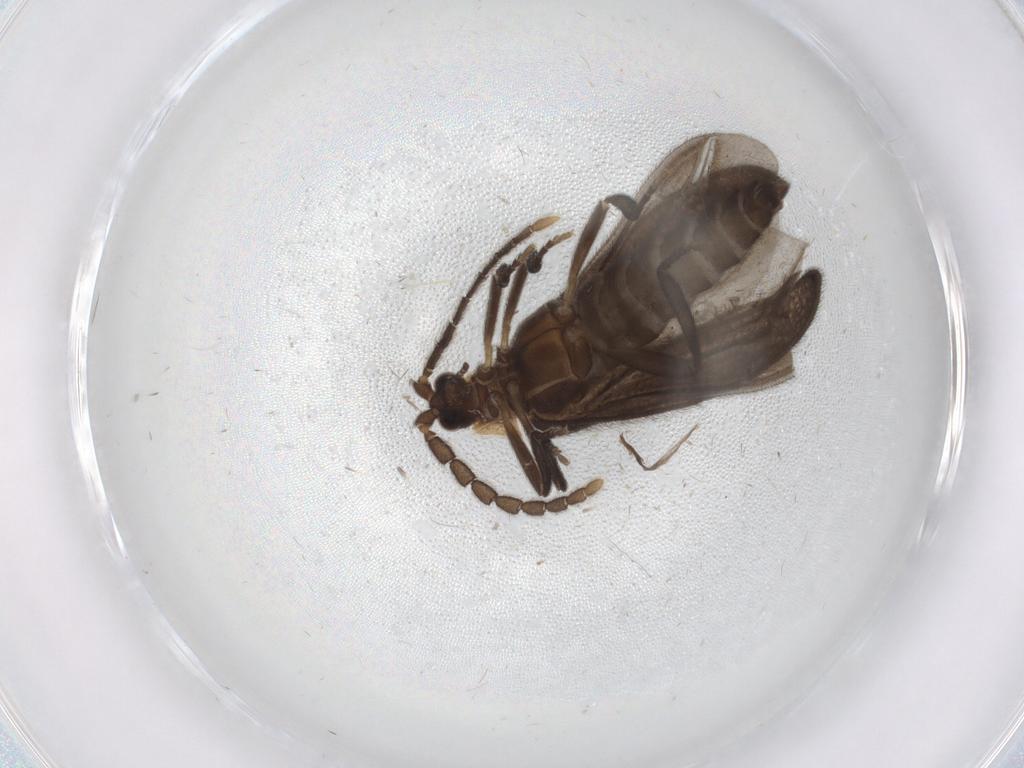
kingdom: Animalia
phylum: Arthropoda
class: Insecta
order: Coleoptera
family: Lycidae
